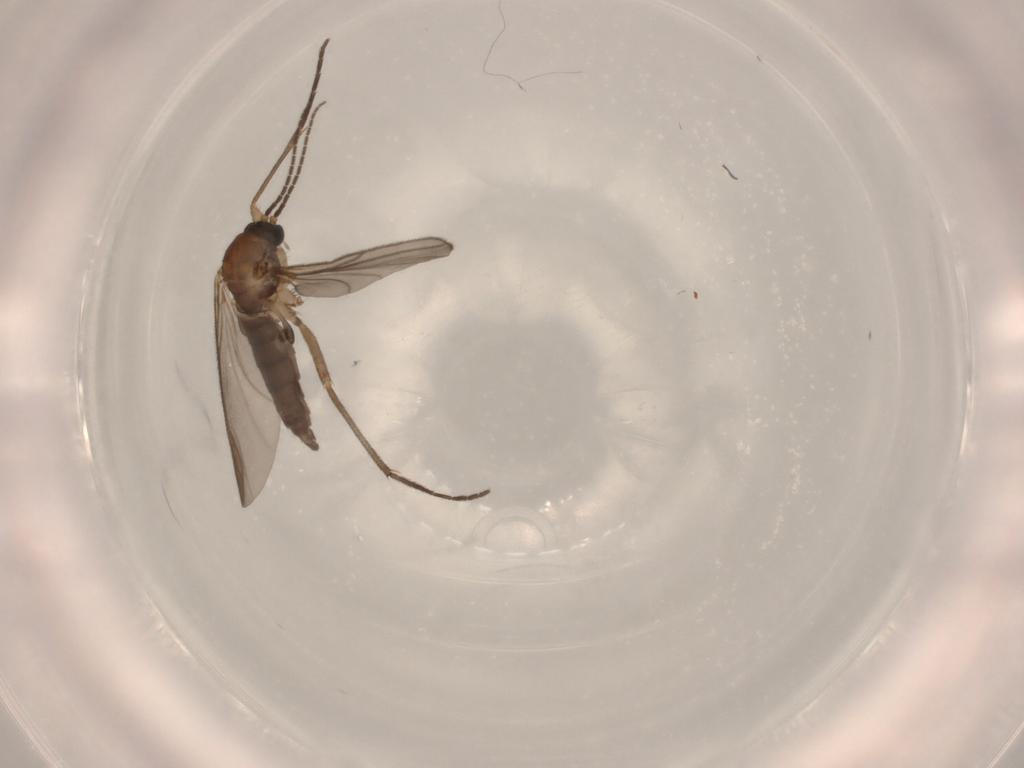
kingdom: Animalia
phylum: Arthropoda
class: Insecta
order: Diptera
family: Sciaridae
